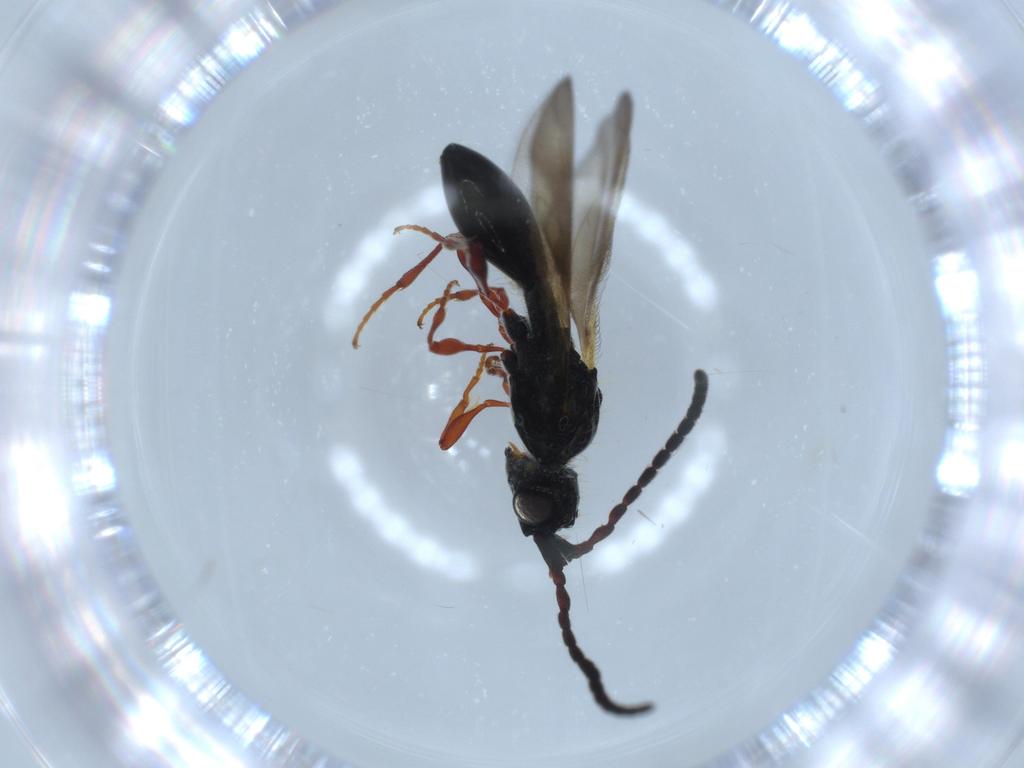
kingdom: Animalia
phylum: Arthropoda
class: Insecta
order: Hymenoptera
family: Diapriidae
